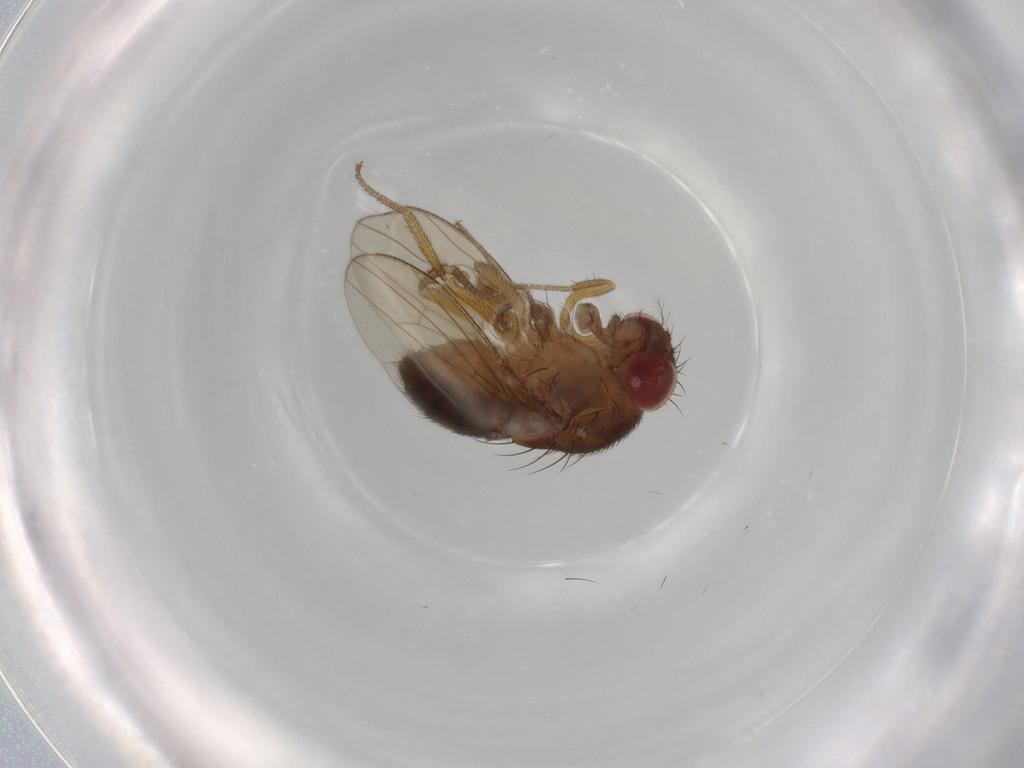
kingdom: Animalia
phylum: Arthropoda
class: Insecta
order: Diptera
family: Drosophilidae
